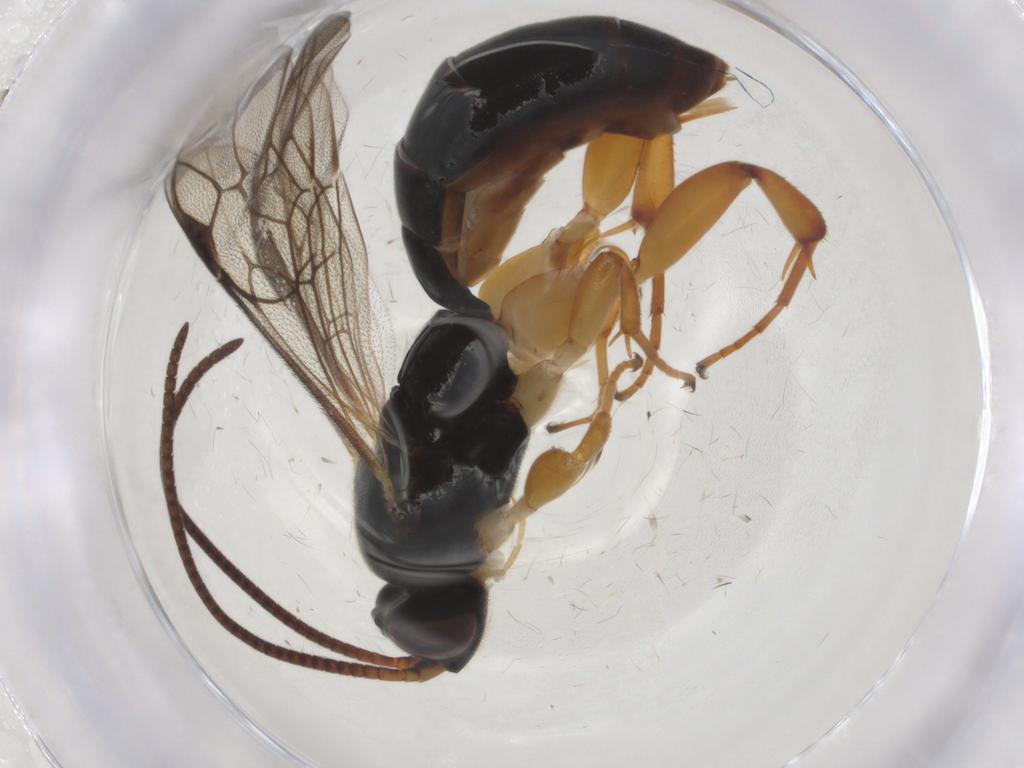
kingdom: Animalia
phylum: Arthropoda
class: Insecta
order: Hymenoptera
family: Ichneumonidae
